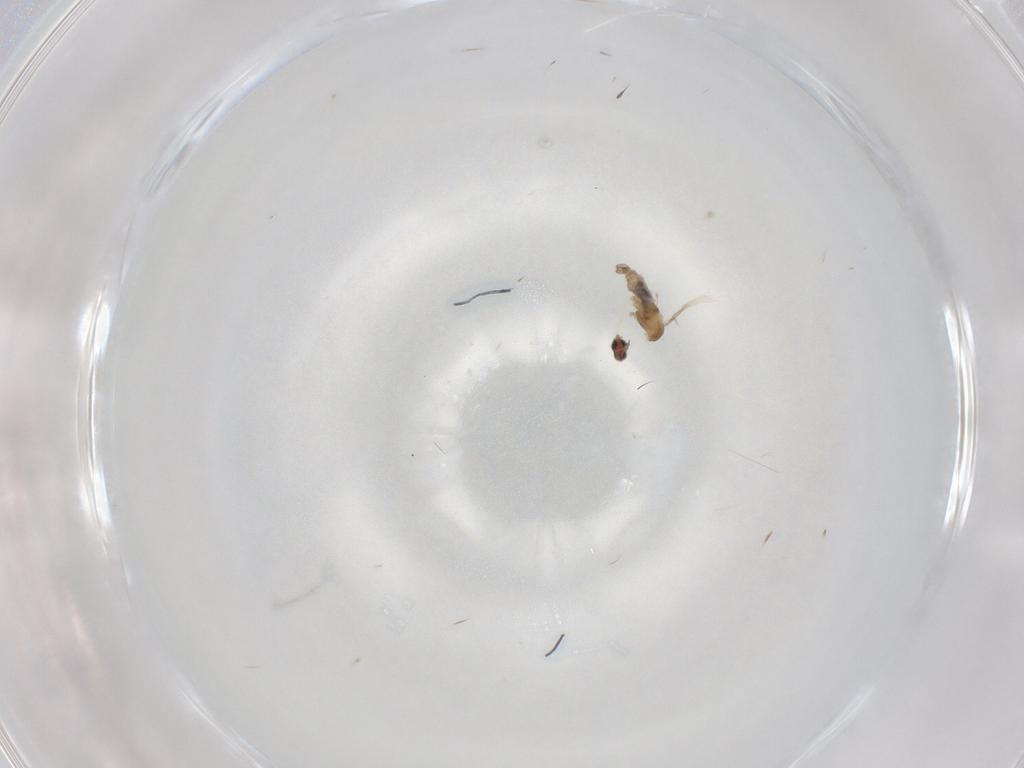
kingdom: Animalia
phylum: Arthropoda
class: Insecta
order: Diptera
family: Cecidomyiidae
